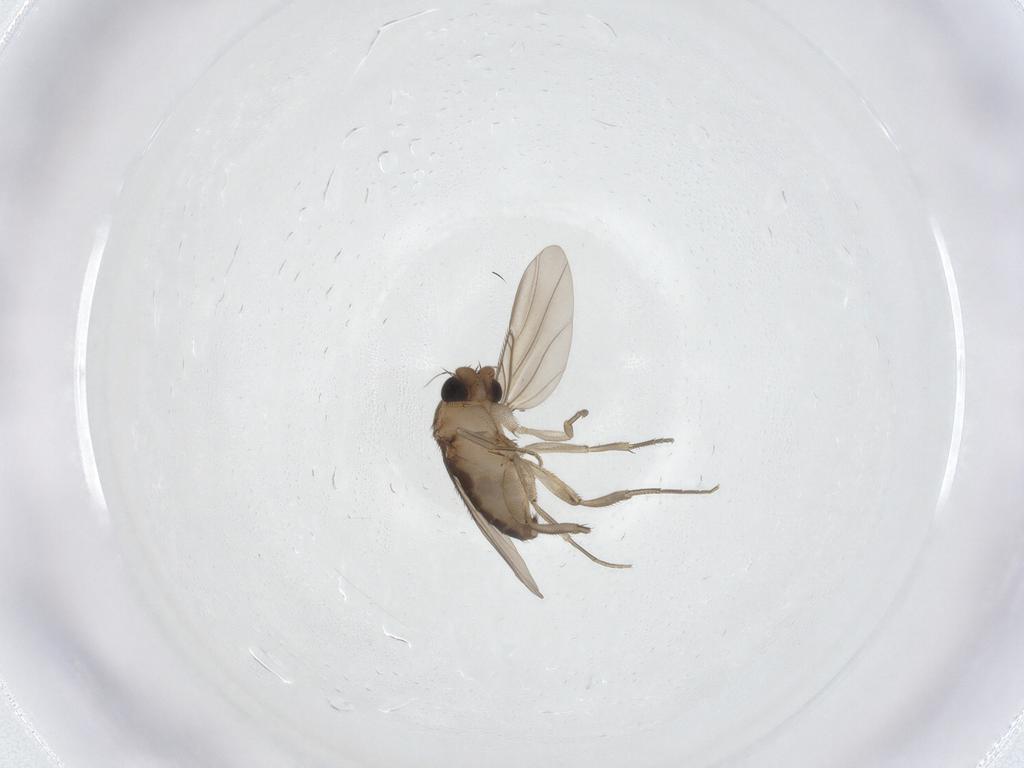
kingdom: Animalia
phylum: Arthropoda
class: Insecta
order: Diptera
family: Phoridae
